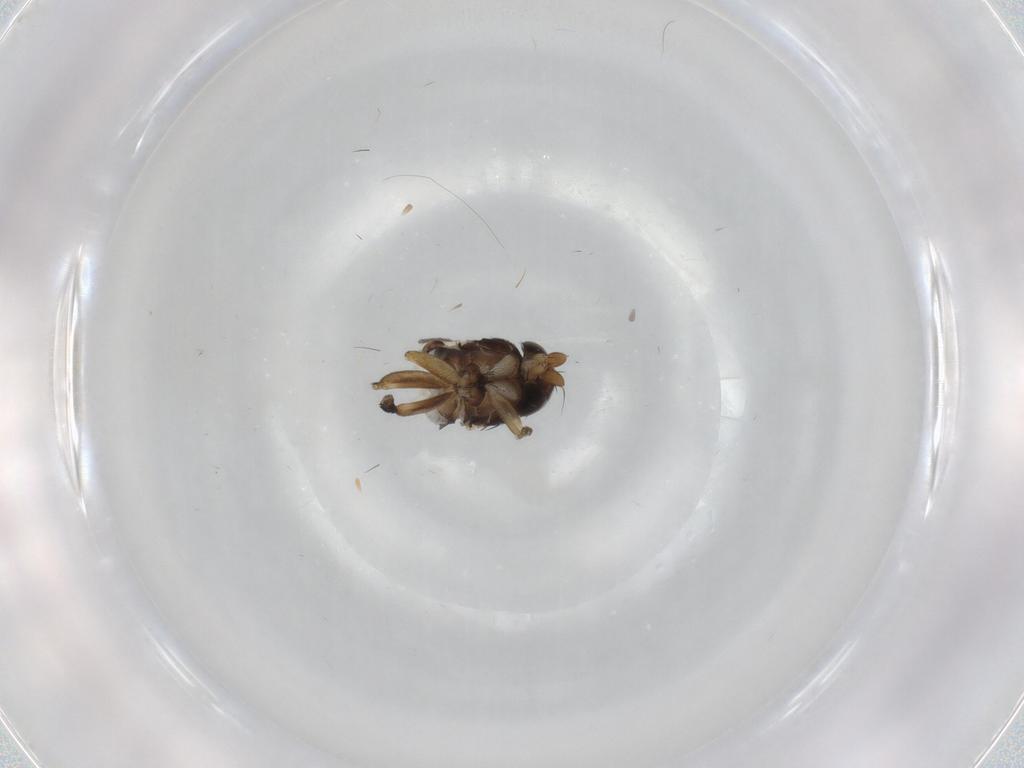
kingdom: Animalia
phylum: Arthropoda
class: Insecta
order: Diptera
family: Phoridae
